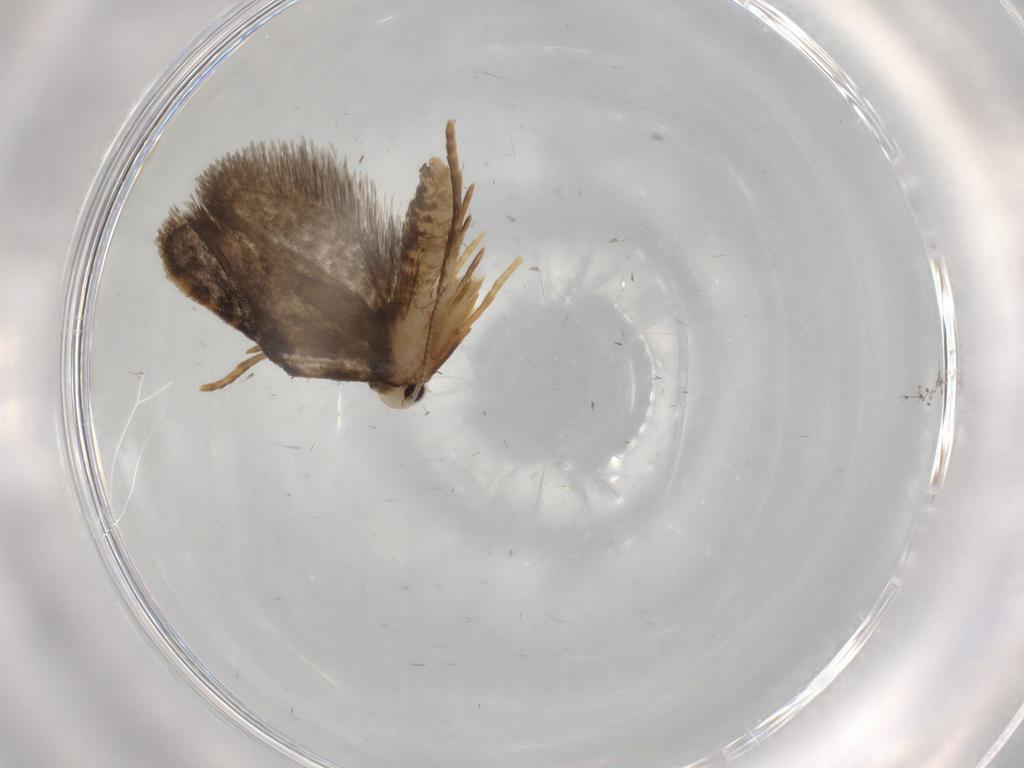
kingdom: Animalia
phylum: Arthropoda
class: Insecta
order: Lepidoptera
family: Psychidae
